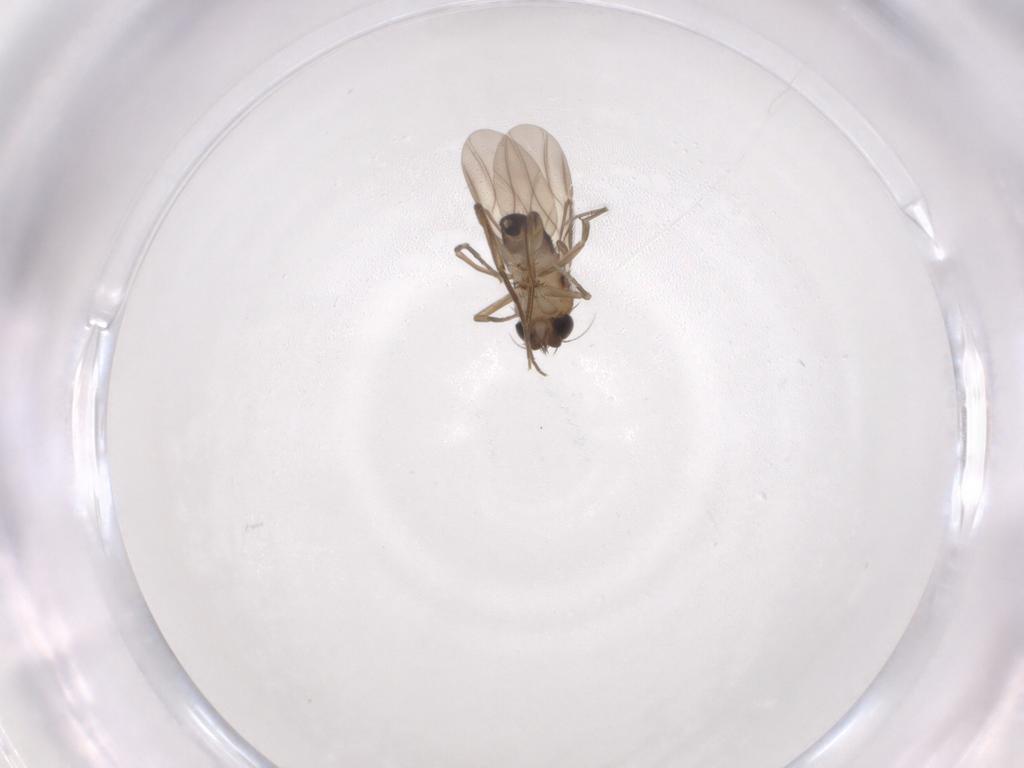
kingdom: Animalia
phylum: Arthropoda
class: Insecta
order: Diptera
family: Phoridae
